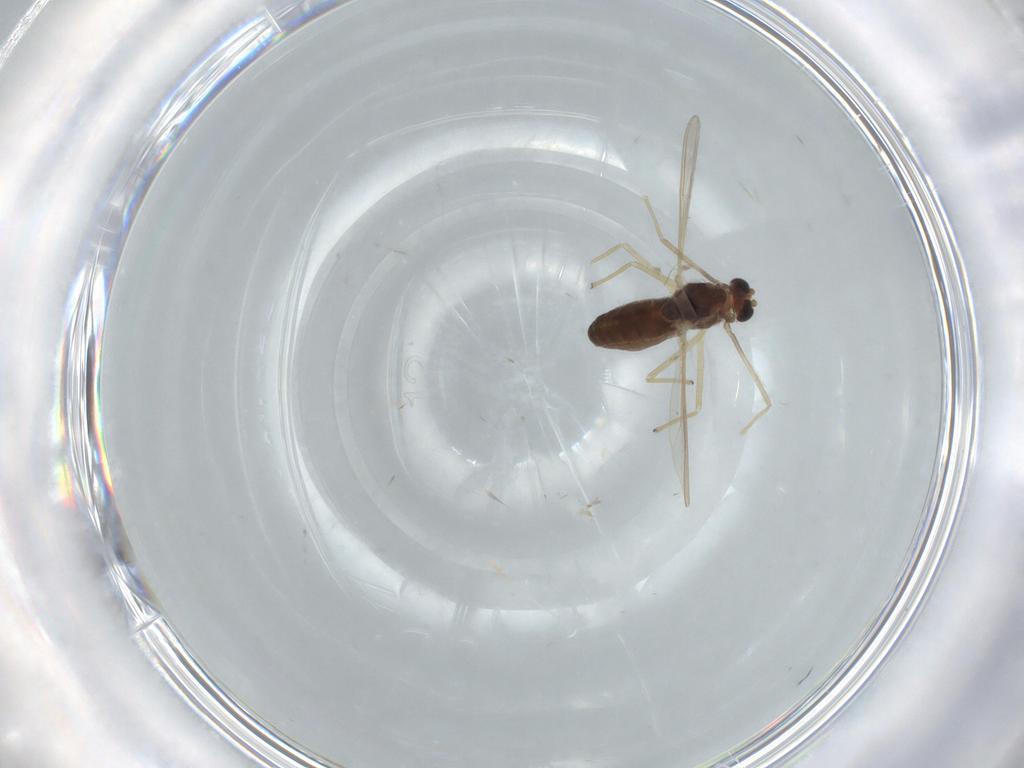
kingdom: Animalia
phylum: Arthropoda
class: Insecta
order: Diptera
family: Chironomidae
